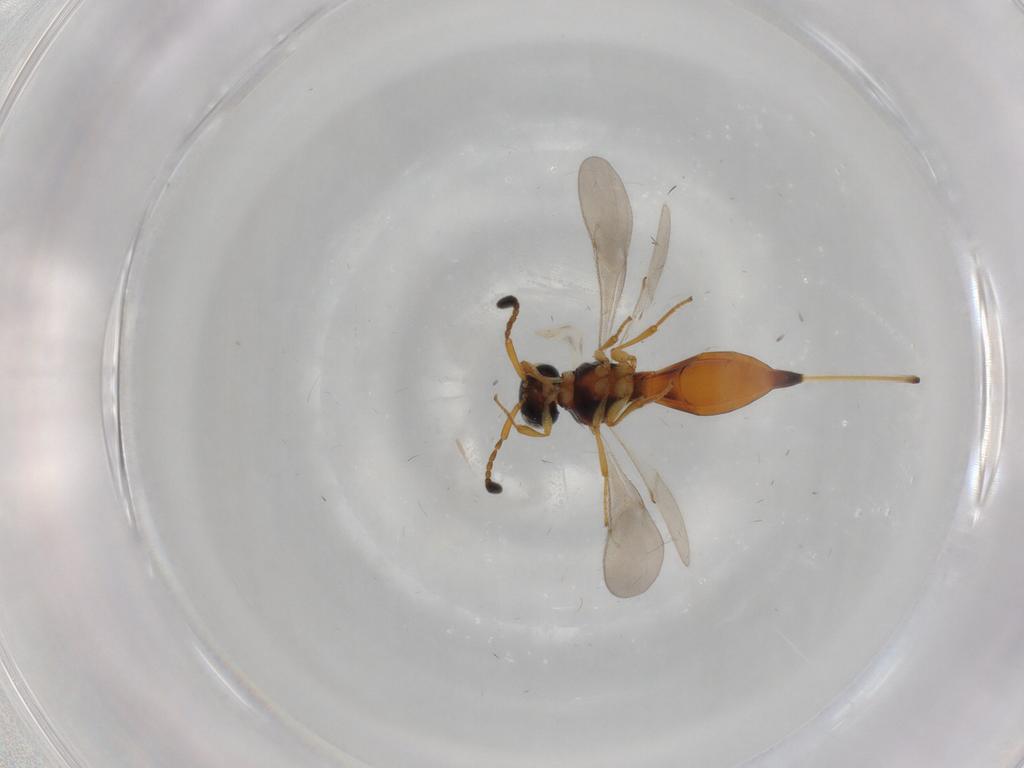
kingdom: Animalia
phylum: Arthropoda
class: Insecta
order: Hymenoptera
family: Scelionidae
